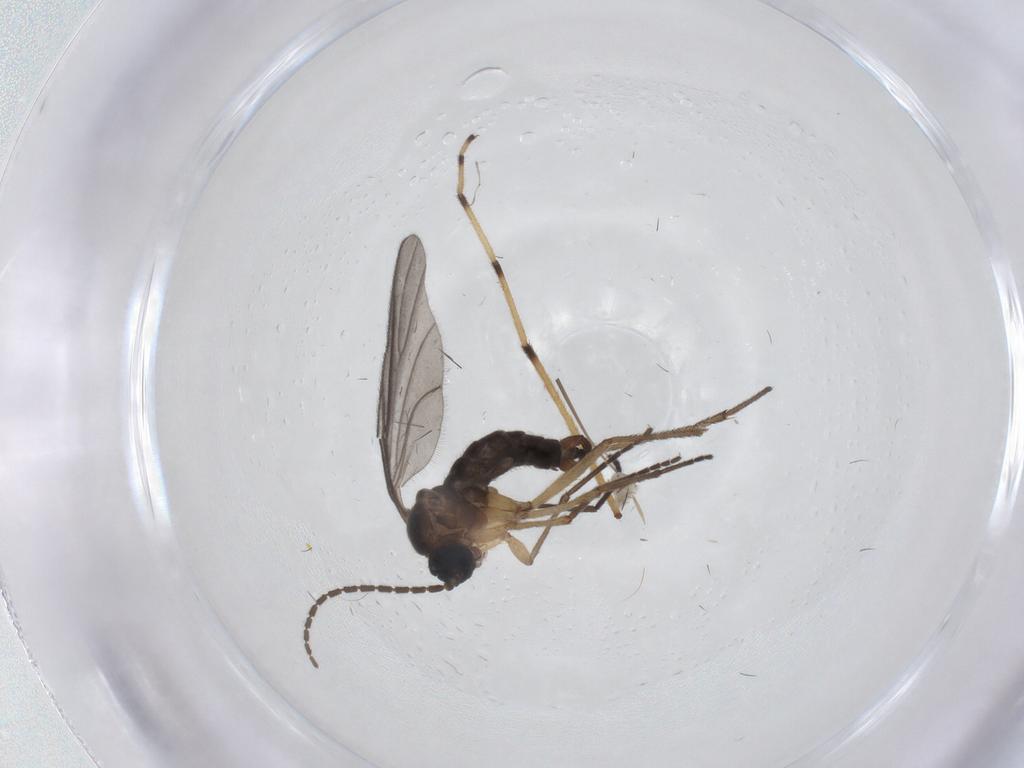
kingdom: Animalia
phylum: Arthropoda
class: Insecta
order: Diptera
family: Sciaridae
